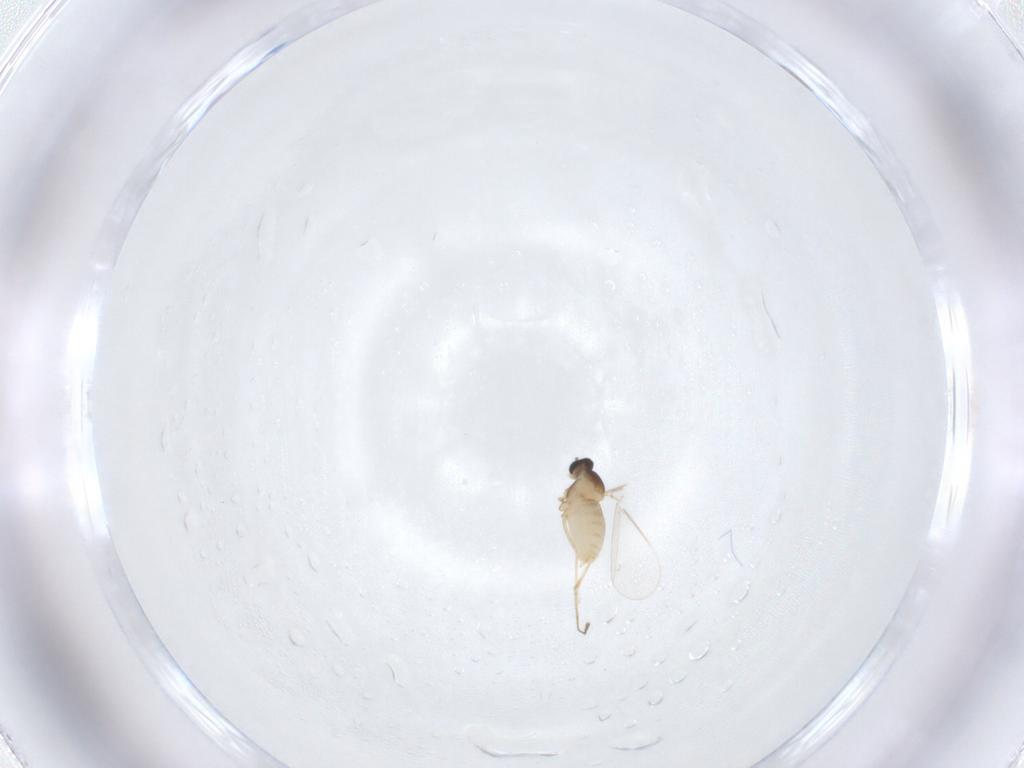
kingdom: Animalia
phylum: Arthropoda
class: Insecta
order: Diptera
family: Cecidomyiidae
